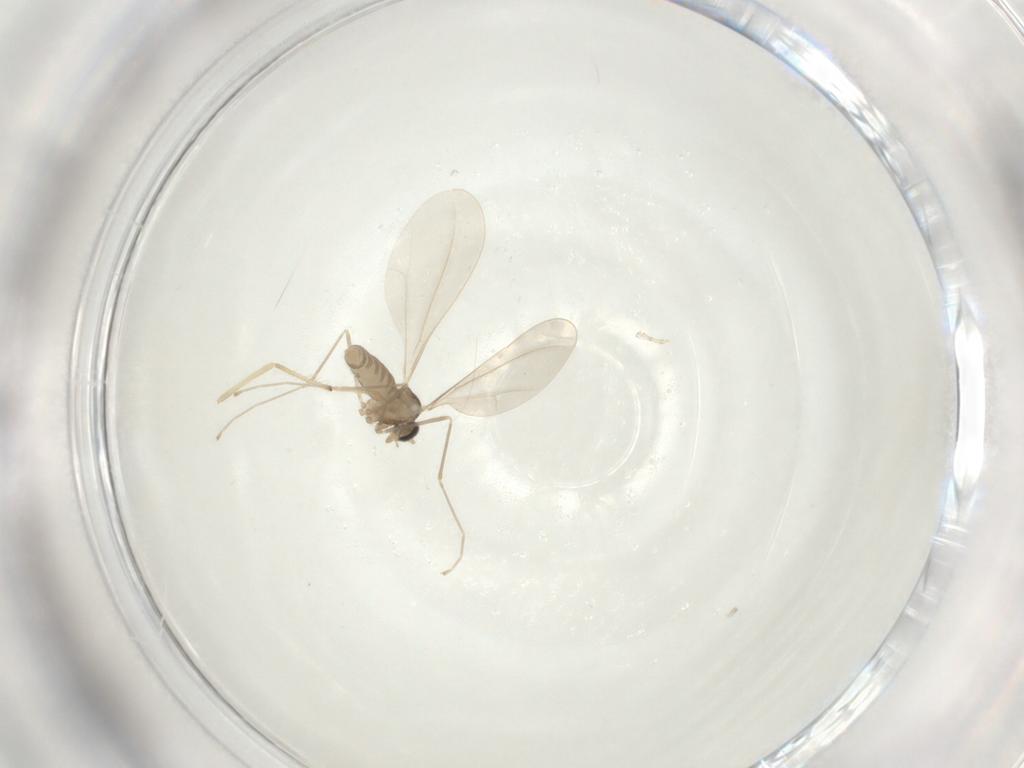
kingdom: Animalia
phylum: Arthropoda
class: Insecta
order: Diptera
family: Cecidomyiidae
